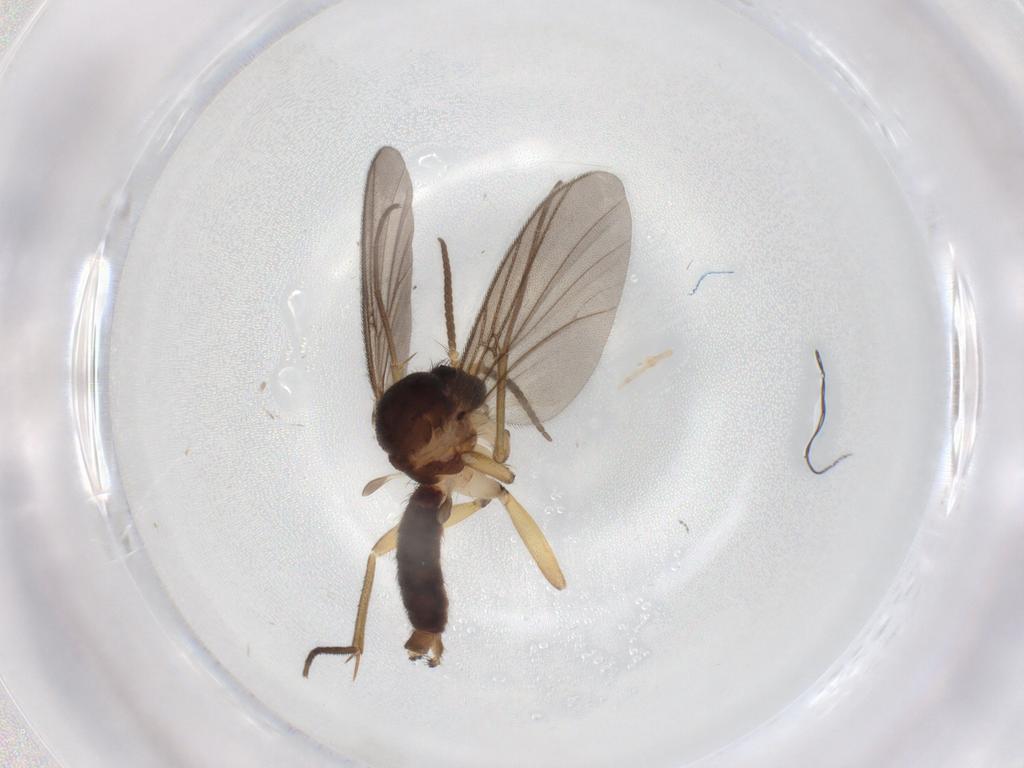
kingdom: Animalia
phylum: Arthropoda
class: Insecta
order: Diptera
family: Mycetophilidae
